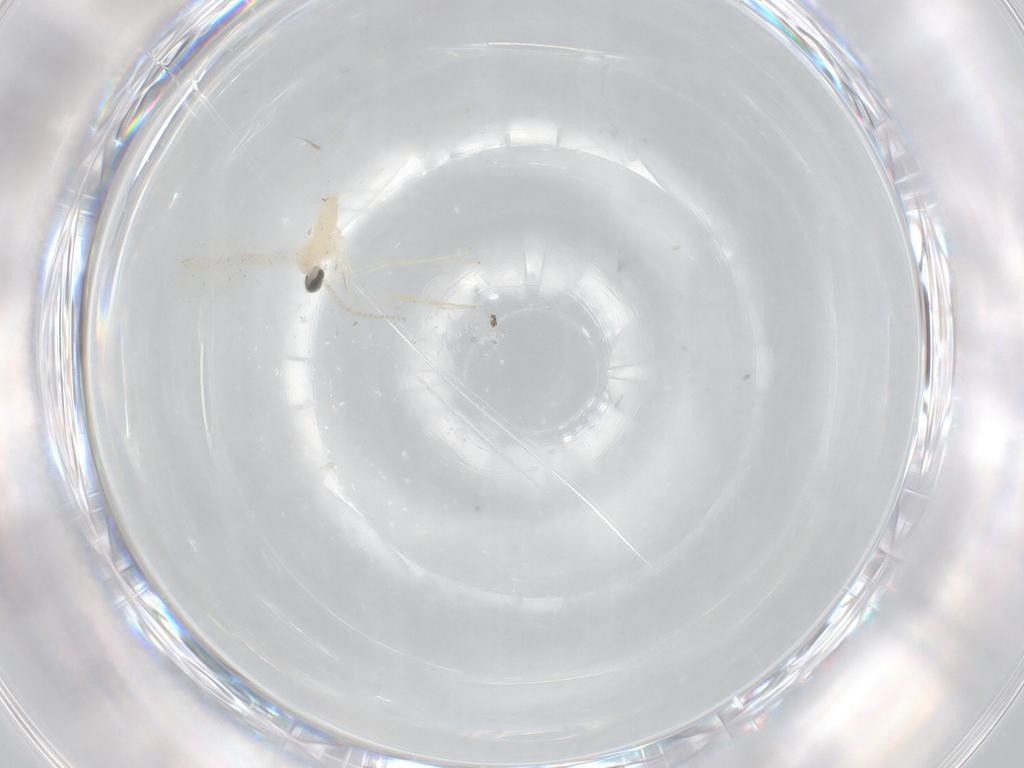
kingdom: Animalia
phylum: Arthropoda
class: Insecta
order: Diptera
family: Cecidomyiidae
